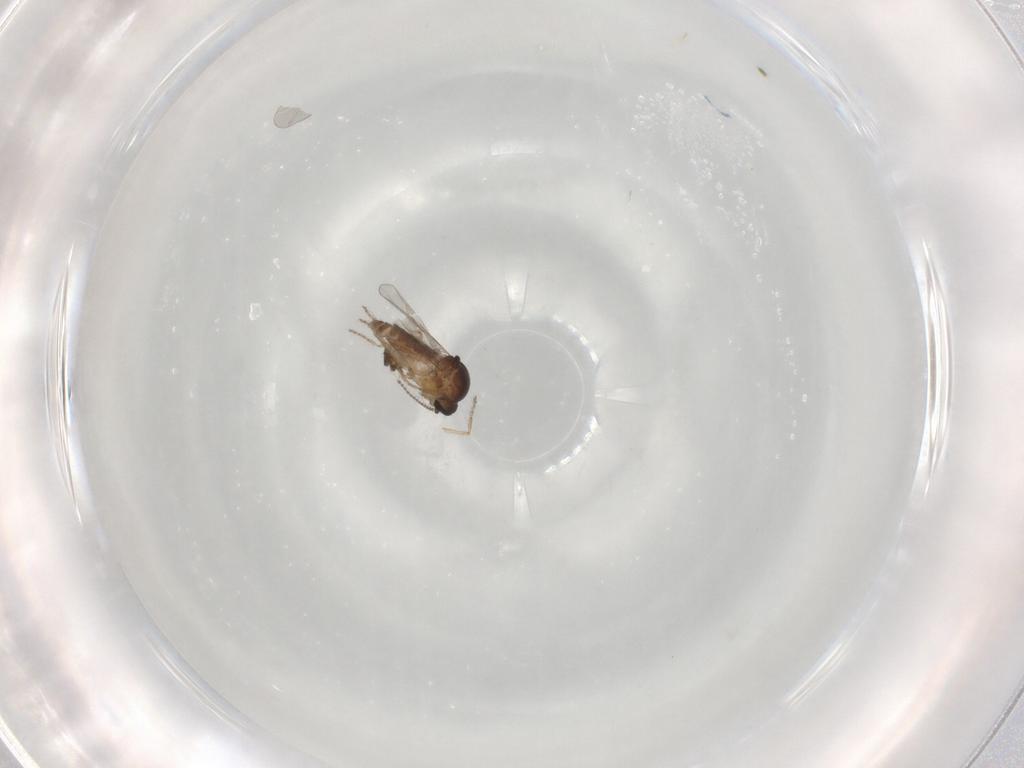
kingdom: Animalia
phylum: Arthropoda
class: Insecta
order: Diptera
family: Ceratopogonidae
